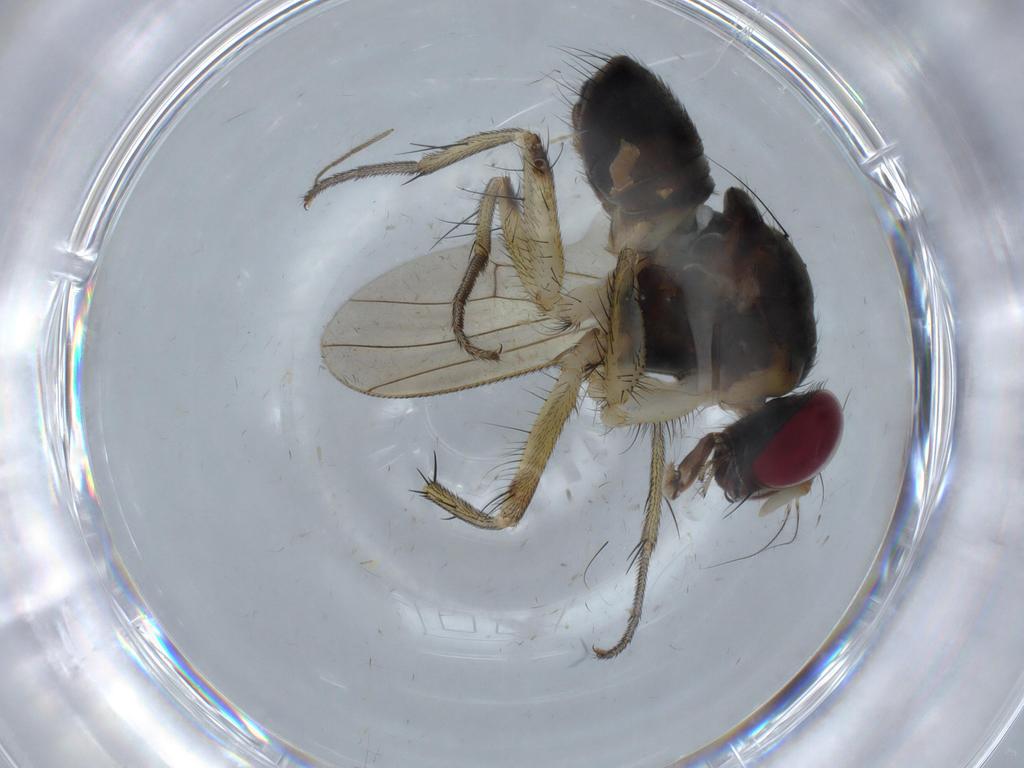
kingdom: Animalia
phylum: Arthropoda
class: Insecta
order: Diptera
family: Muscidae
